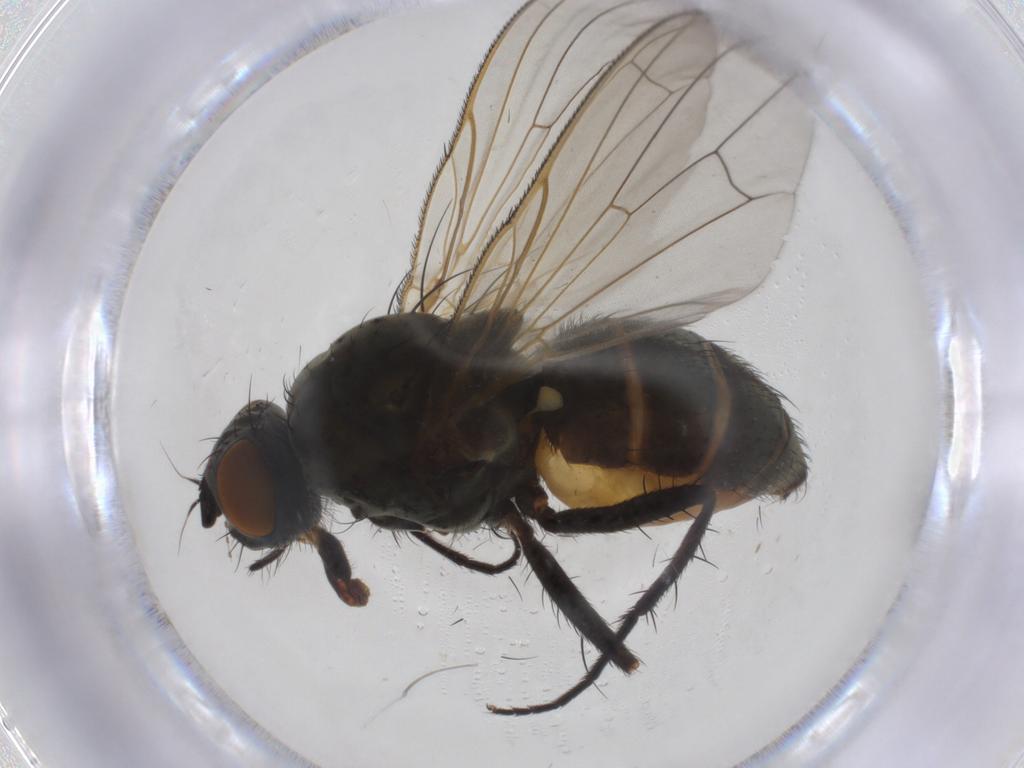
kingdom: Animalia
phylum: Arthropoda
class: Insecta
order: Diptera
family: Ceratopogonidae
